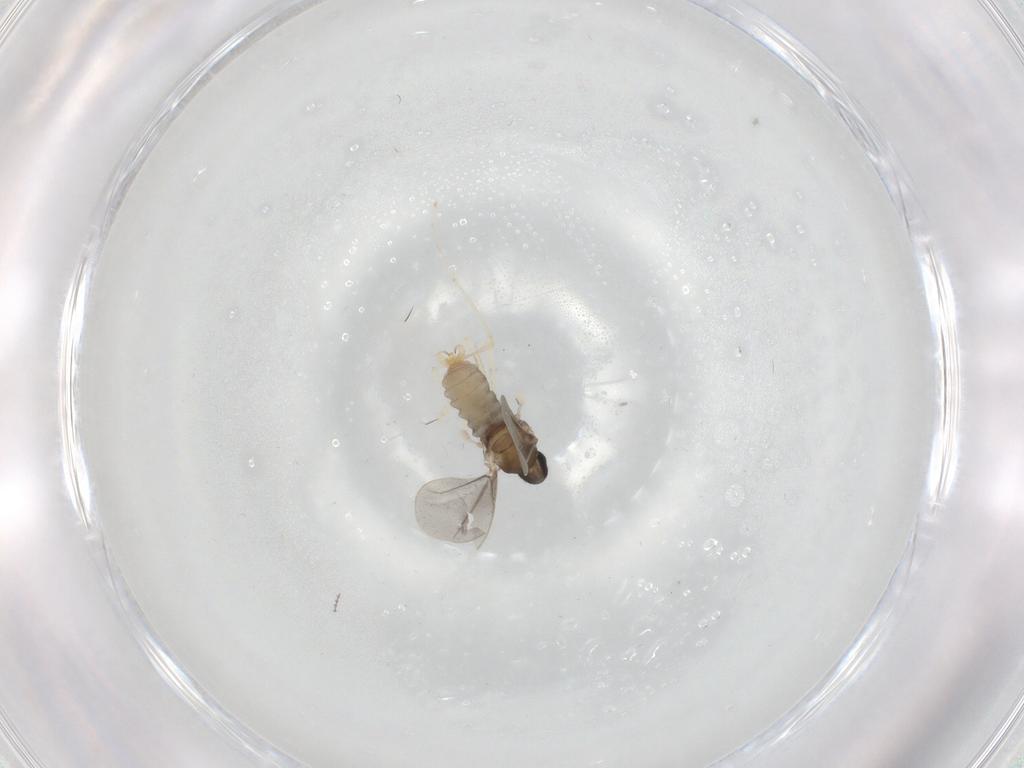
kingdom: Animalia
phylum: Arthropoda
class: Insecta
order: Diptera
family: Cecidomyiidae
